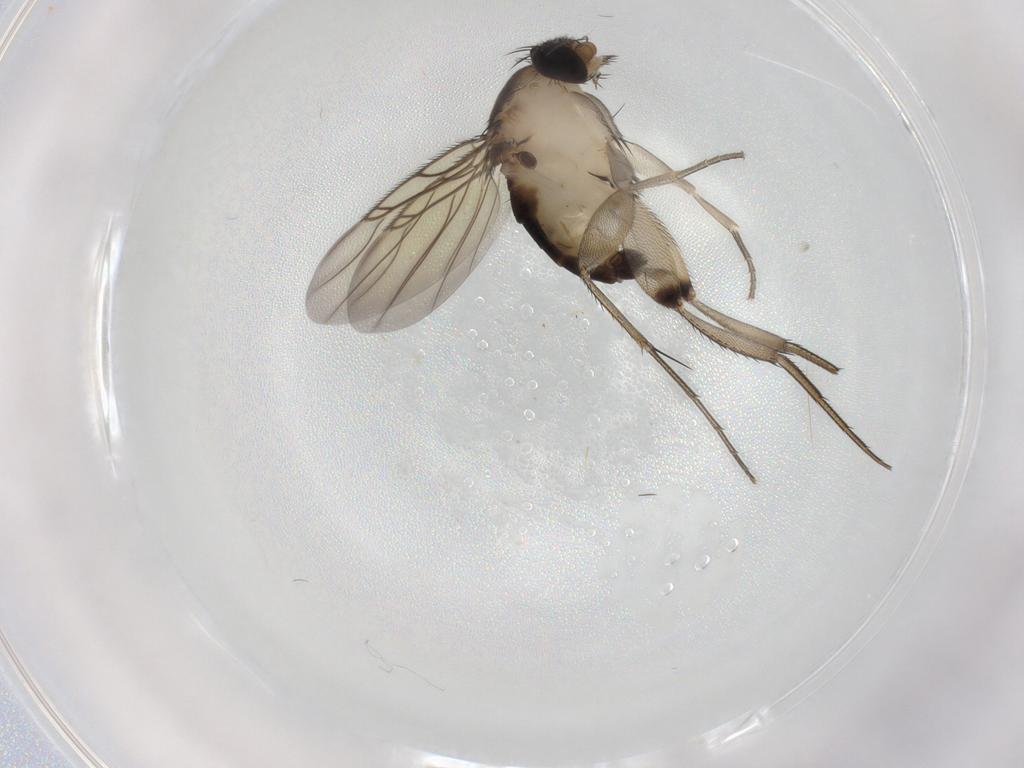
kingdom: Animalia
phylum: Arthropoda
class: Insecta
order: Diptera
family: Phoridae
